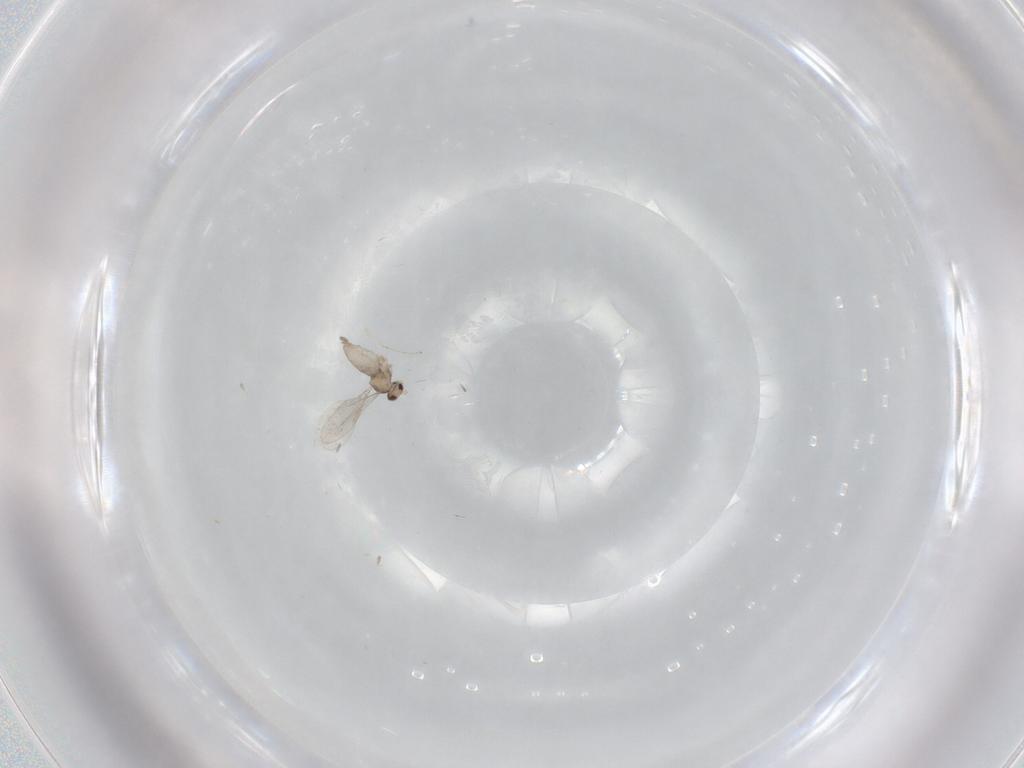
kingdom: Animalia
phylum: Arthropoda
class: Insecta
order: Diptera
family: Cecidomyiidae
